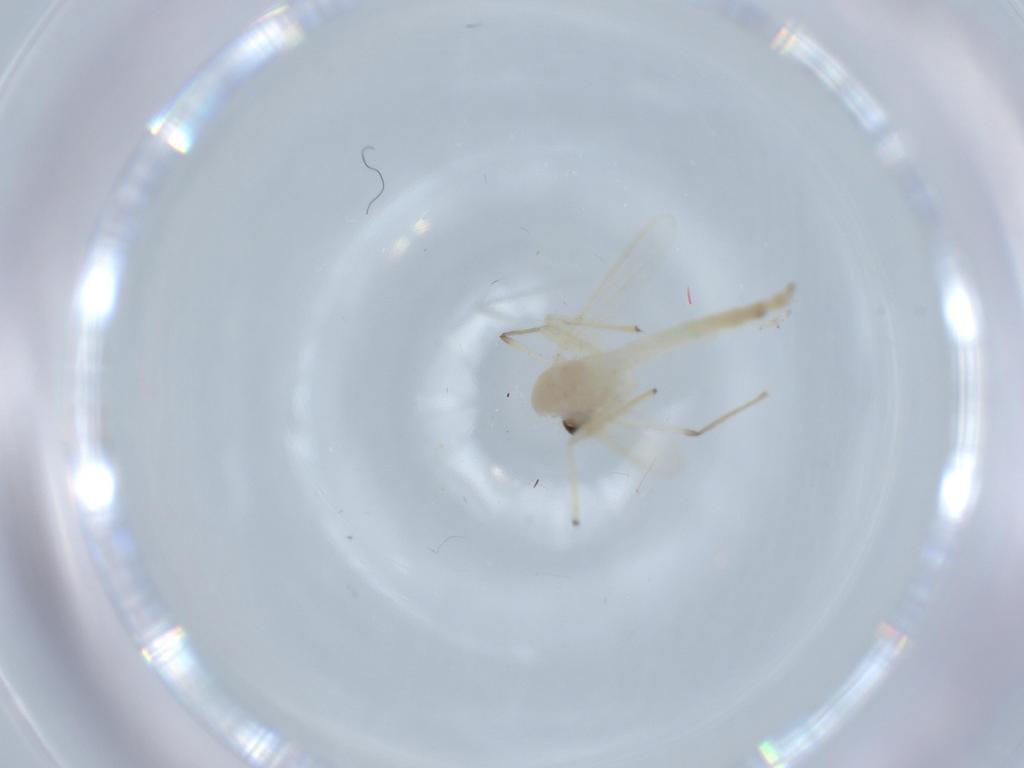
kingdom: Animalia
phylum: Arthropoda
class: Insecta
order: Diptera
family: Chironomidae
